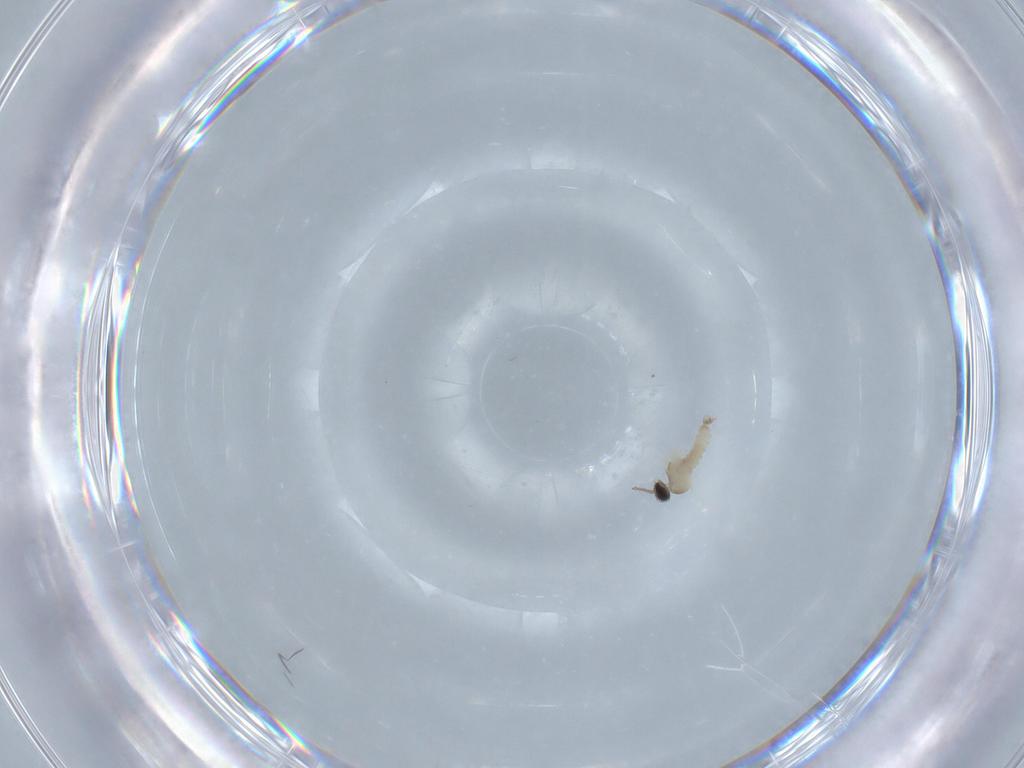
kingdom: Animalia
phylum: Arthropoda
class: Insecta
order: Diptera
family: Cecidomyiidae
